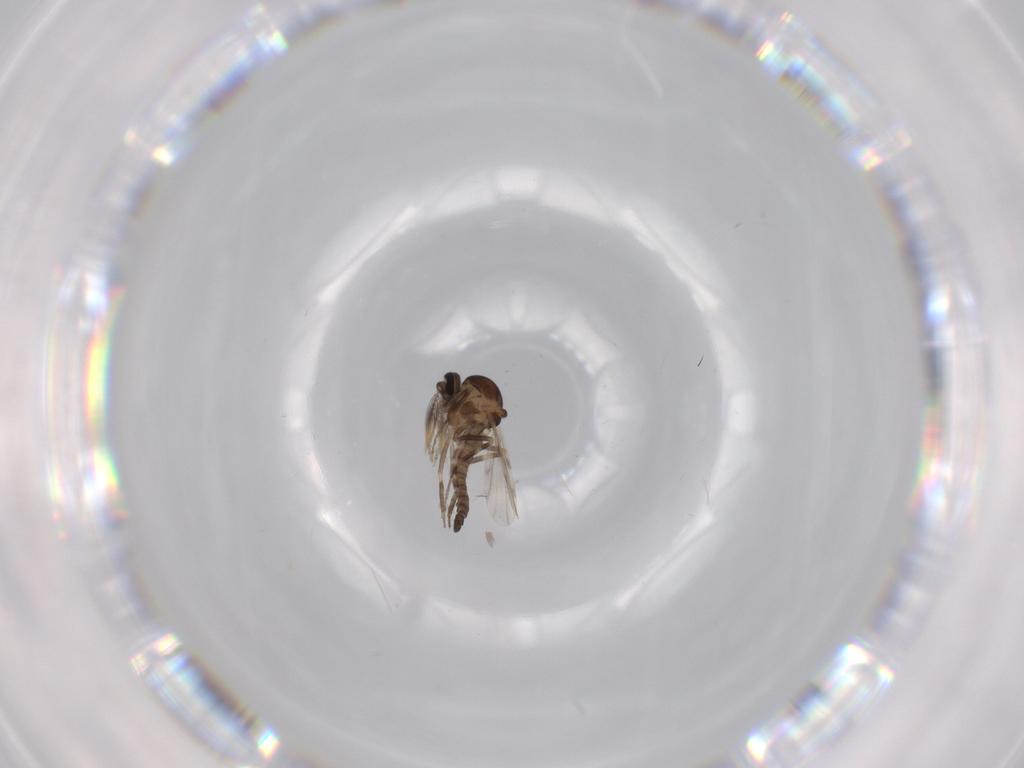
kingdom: Animalia
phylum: Arthropoda
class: Insecta
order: Diptera
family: Ceratopogonidae
